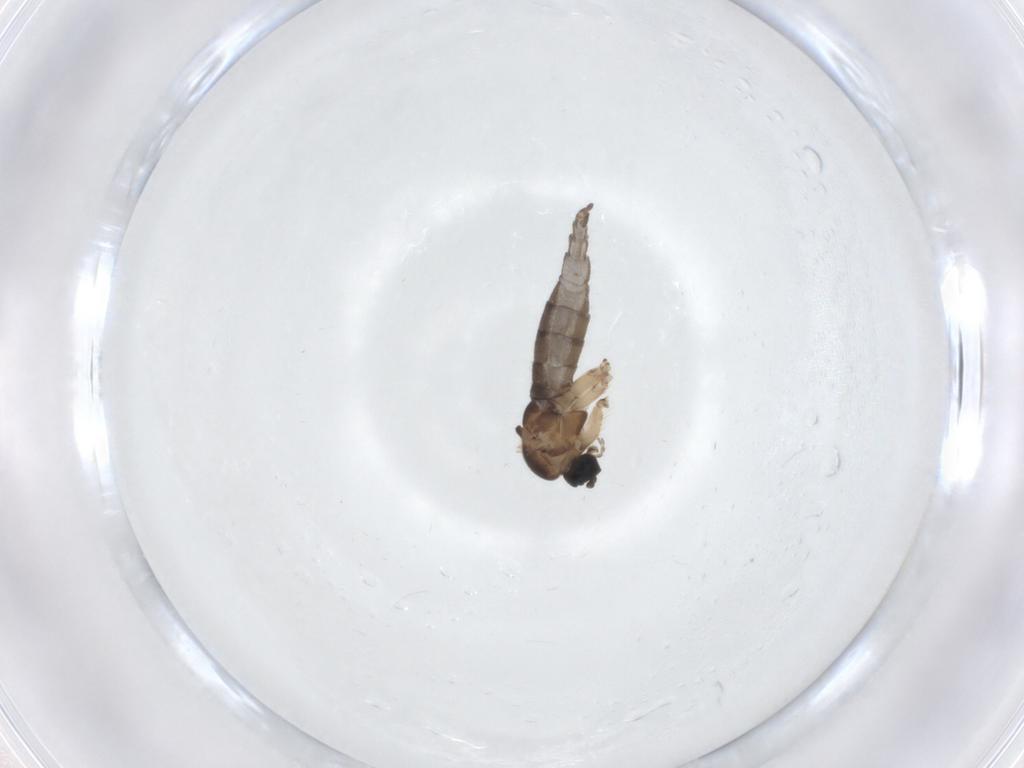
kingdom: Animalia
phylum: Arthropoda
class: Insecta
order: Diptera
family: Sciaridae
